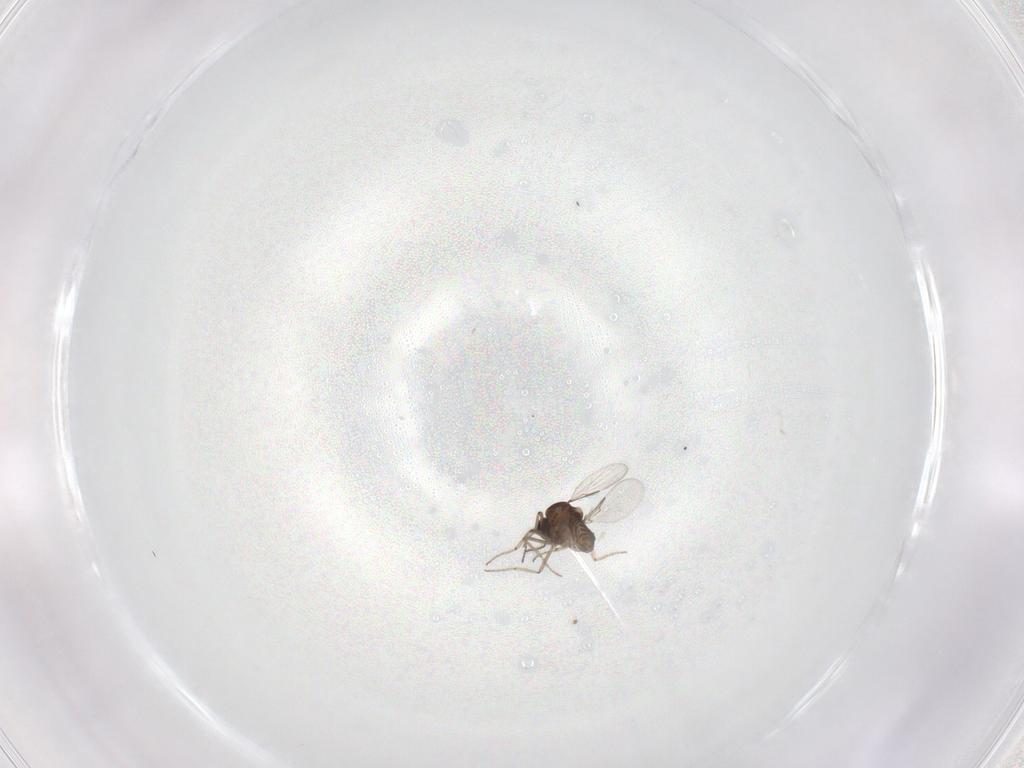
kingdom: Animalia
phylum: Arthropoda
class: Insecta
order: Diptera
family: Ceratopogonidae
